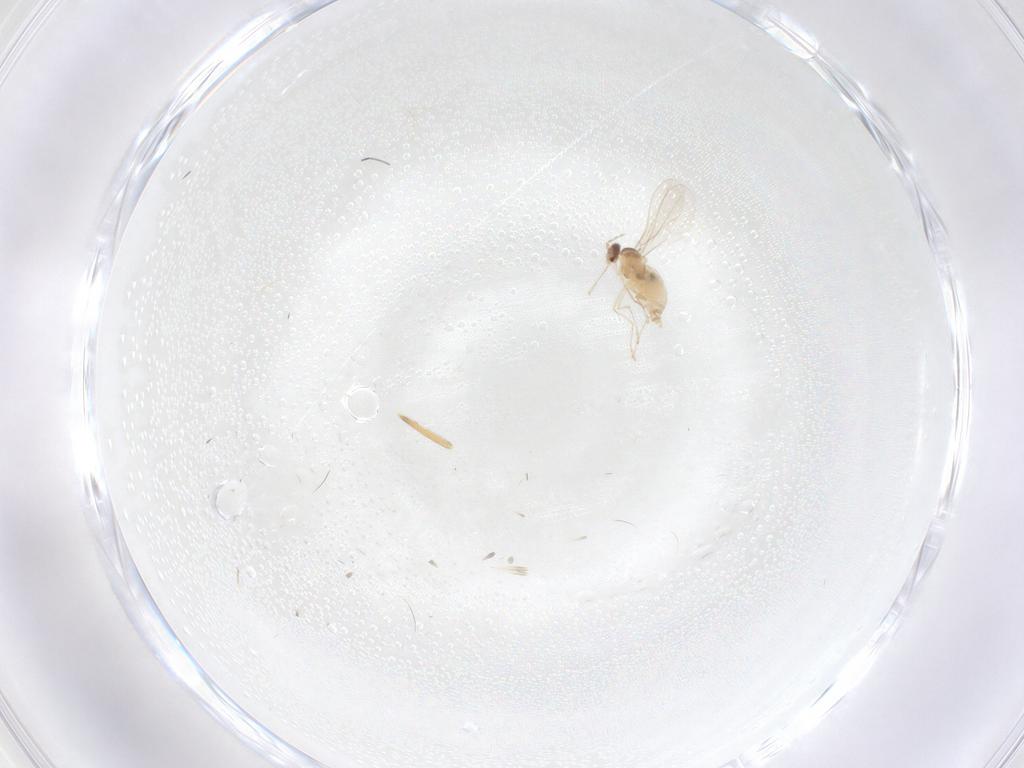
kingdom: Animalia
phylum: Arthropoda
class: Insecta
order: Diptera
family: Cecidomyiidae
